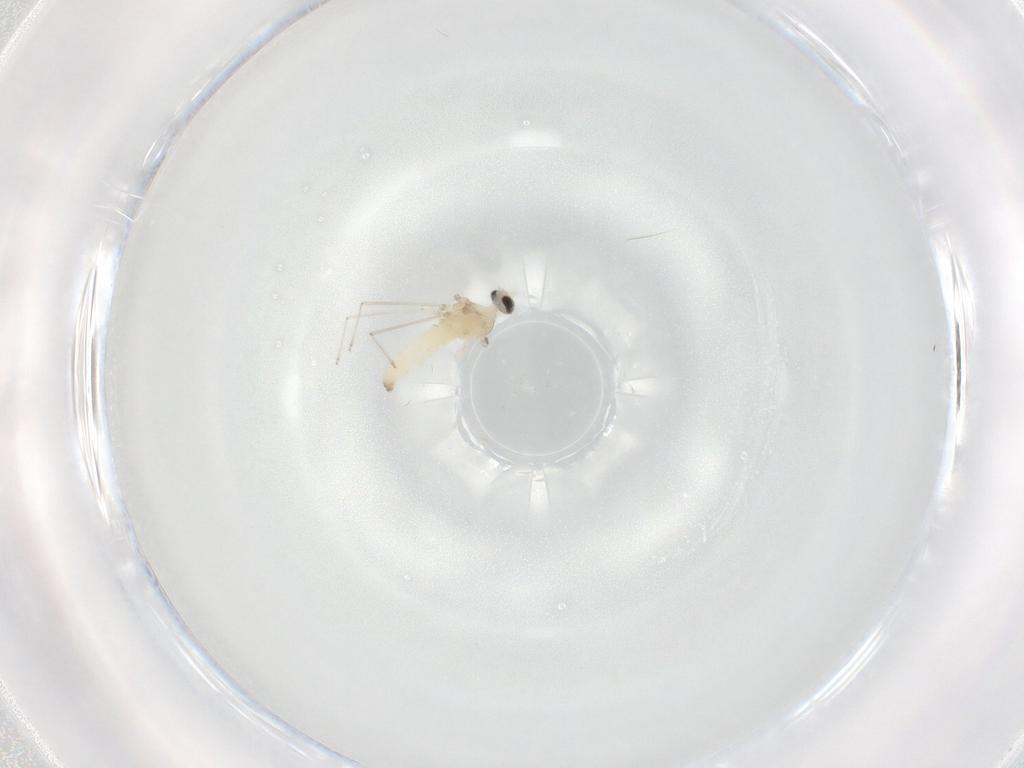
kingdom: Animalia
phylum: Arthropoda
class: Insecta
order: Diptera
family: Cecidomyiidae
